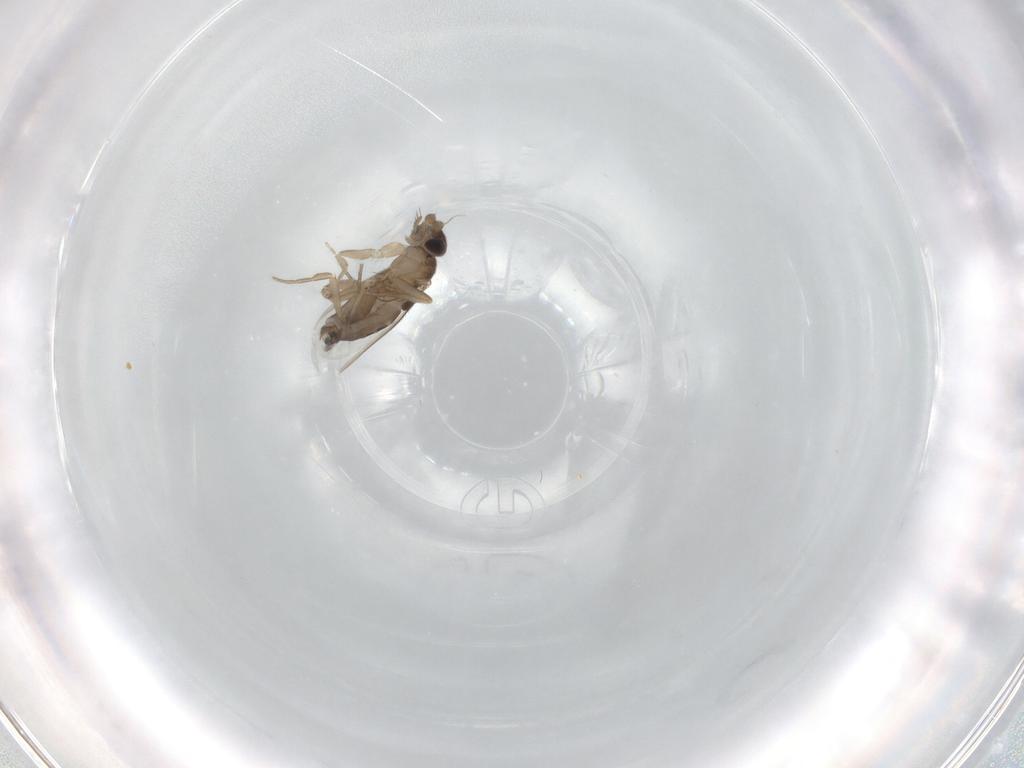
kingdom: Animalia
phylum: Arthropoda
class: Insecta
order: Diptera
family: Phoridae
